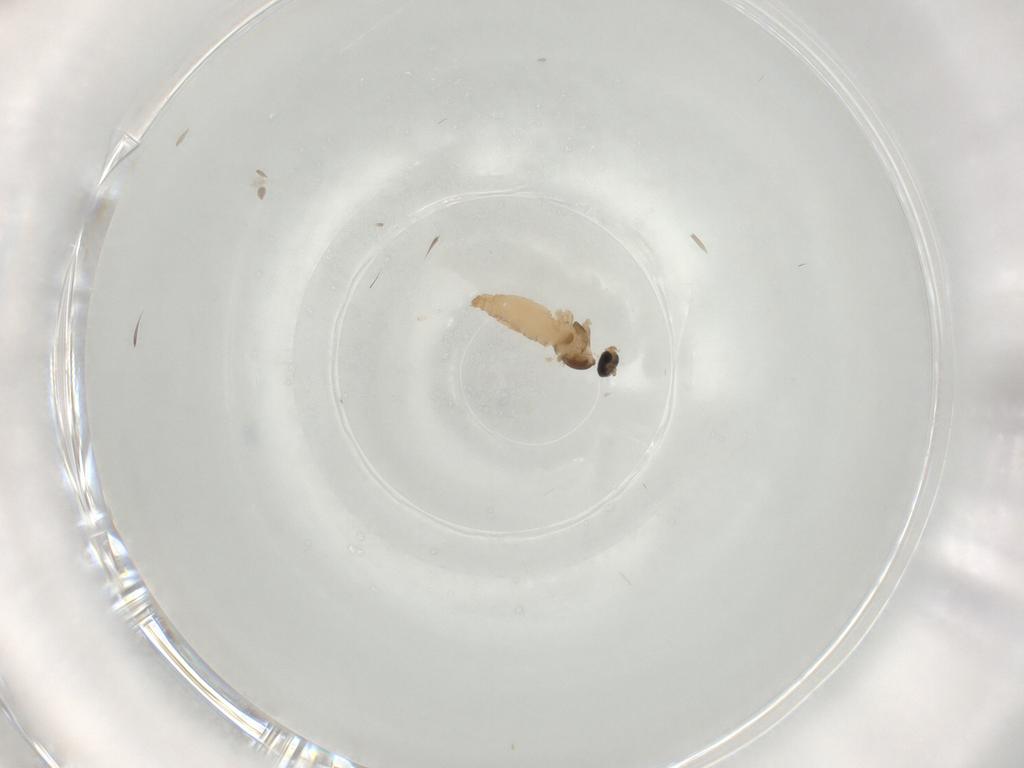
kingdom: Animalia
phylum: Arthropoda
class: Insecta
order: Diptera
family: Cecidomyiidae
